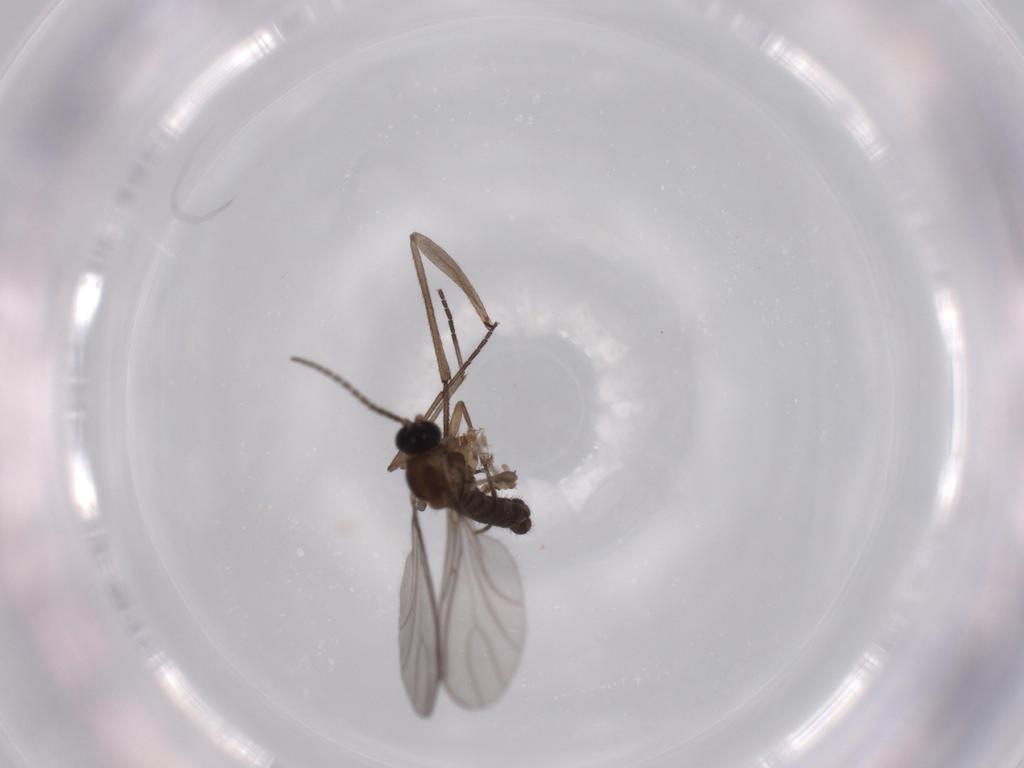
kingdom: Animalia
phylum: Arthropoda
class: Insecta
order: Diptera
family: Sciaridae
